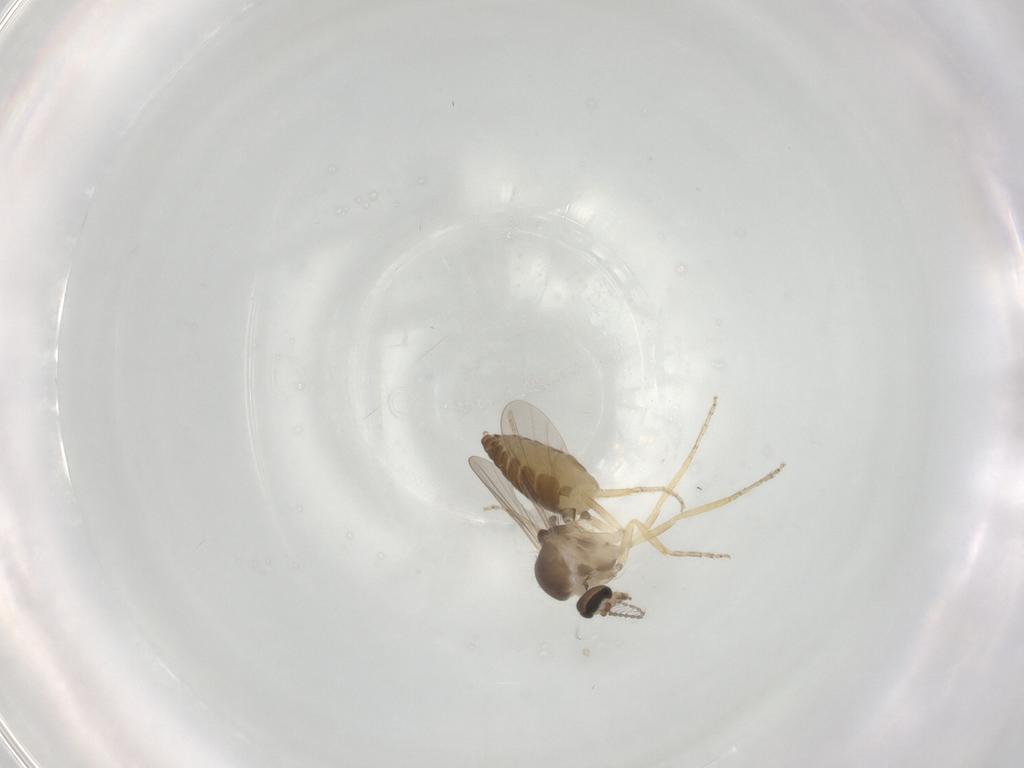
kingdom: Animalia
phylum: Arthropoda
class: Insecta
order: Diptera
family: Ceratopogonidae
